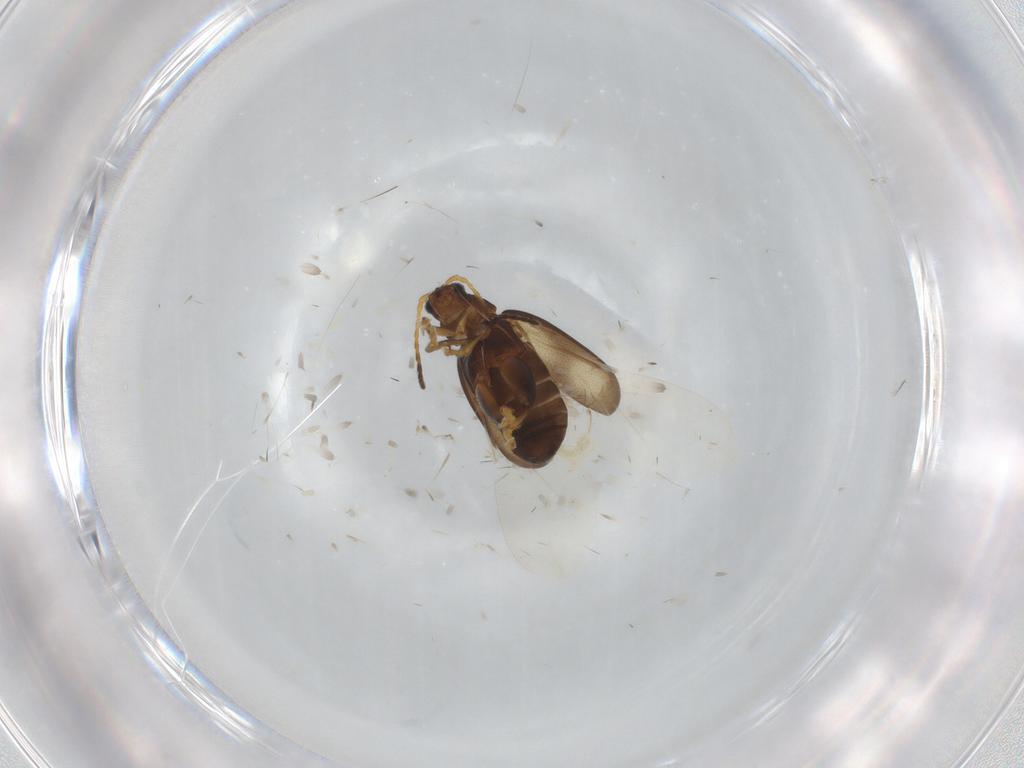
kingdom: Animalia
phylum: Arthropoda
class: Insecta
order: Coleoptera
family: Chrysomelidae
